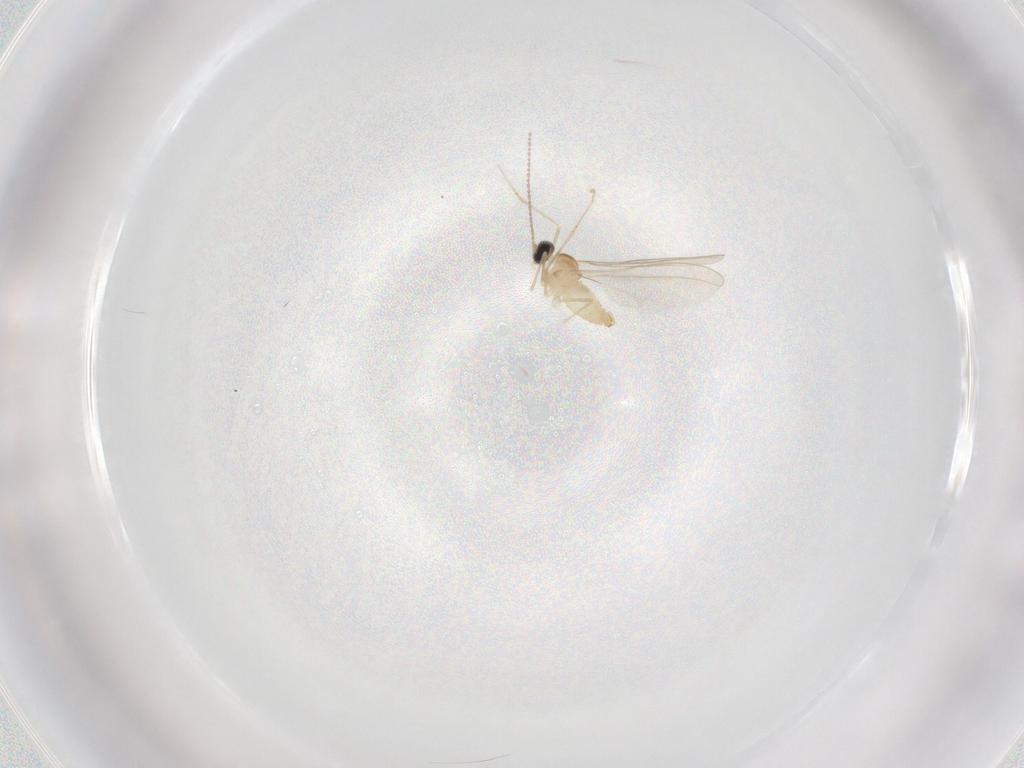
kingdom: Animalia
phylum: Arthropoda
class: Insecta
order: Diptera
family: Cecidomyiidae
